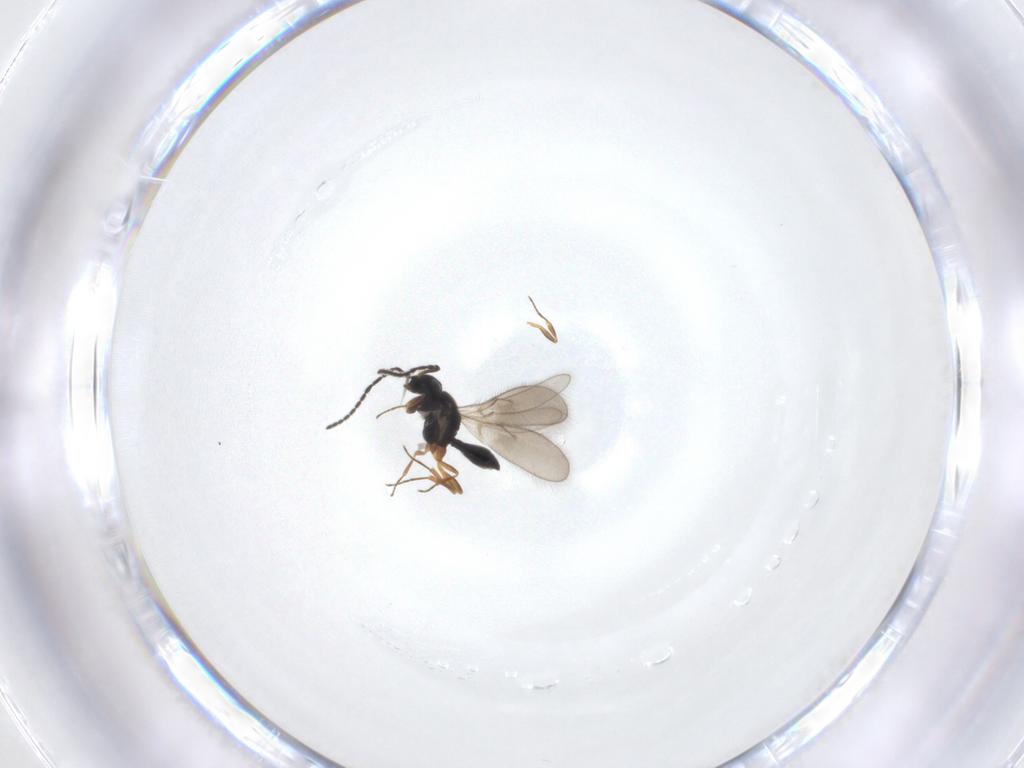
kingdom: Animalia
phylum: Arthropoda
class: Insecta
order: Hymenoptera
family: Scelionidae
